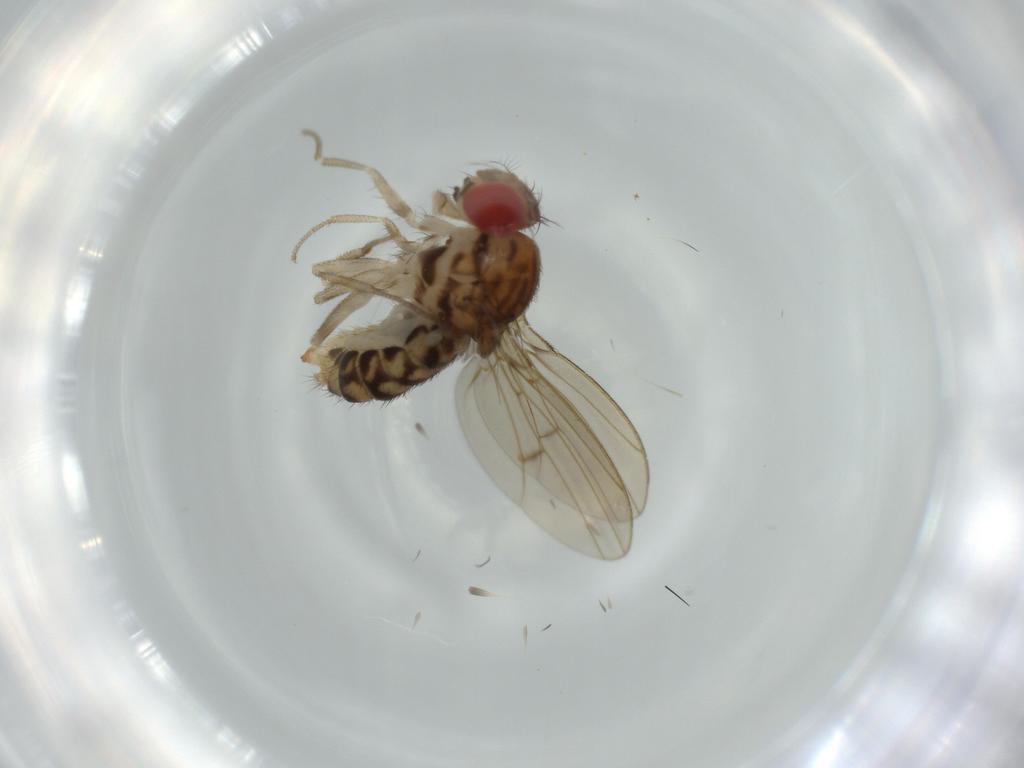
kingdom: Animalia
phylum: Arthropoda
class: Insecta
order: Diptera
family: Drosophilidae
